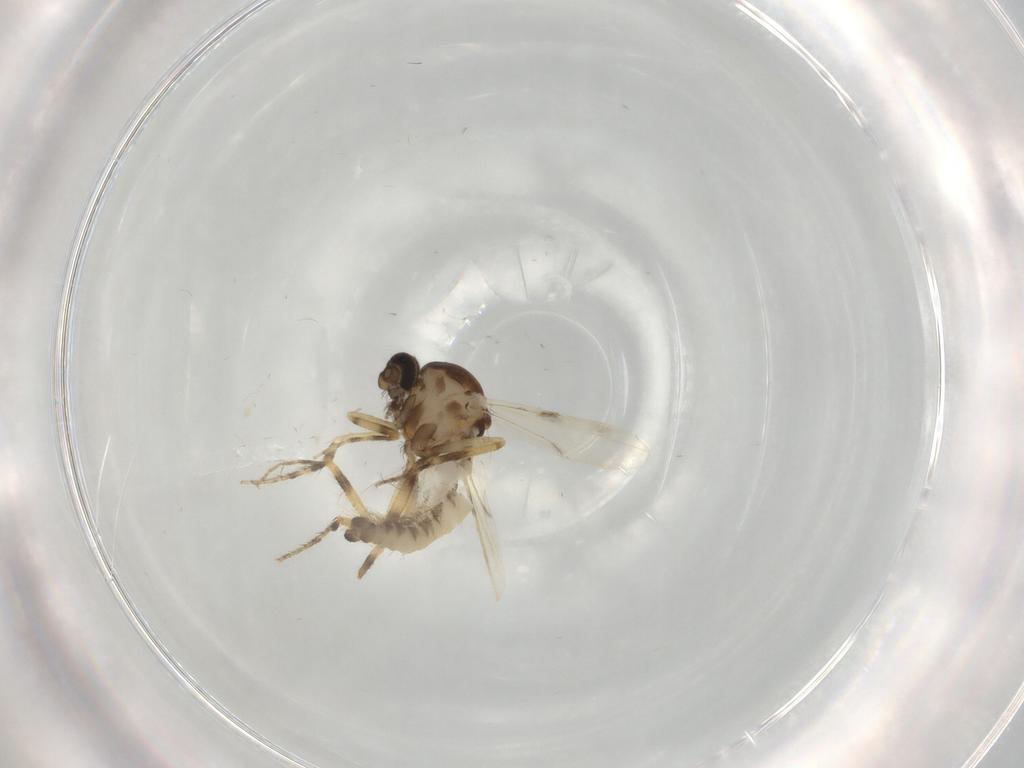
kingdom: Animalia
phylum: Arthropoda
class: Insecta
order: Diptera
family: Ceratopogonidae
